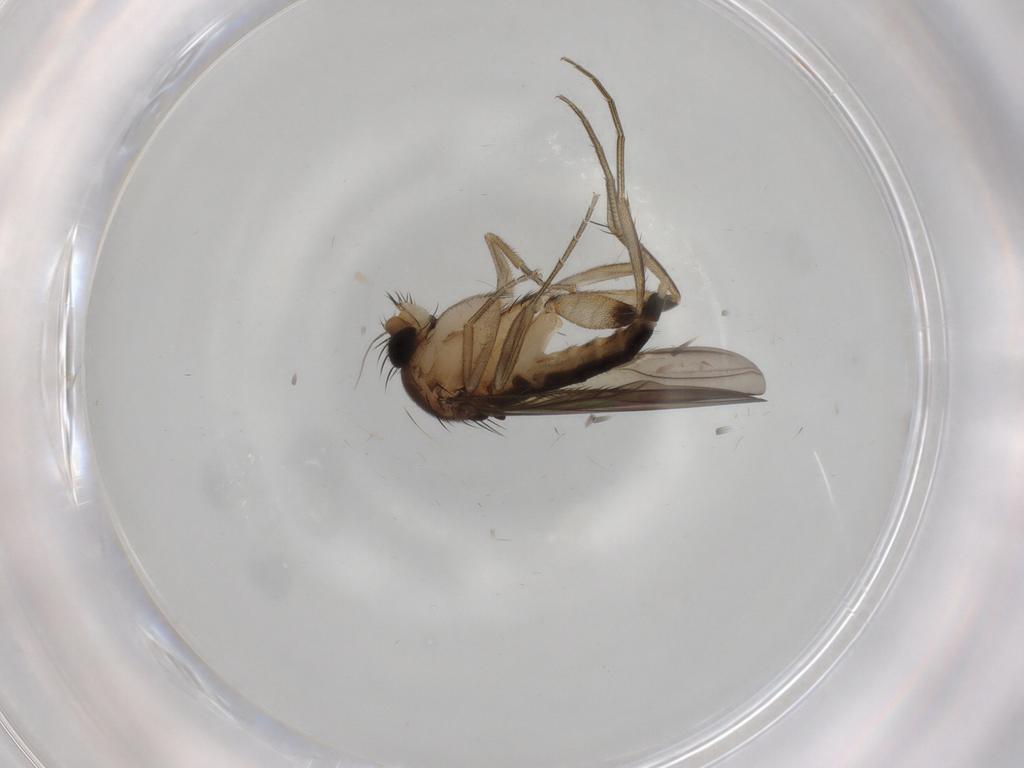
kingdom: Animalia
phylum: Arthropoda
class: Insecta
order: Diptera
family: Phoridae
